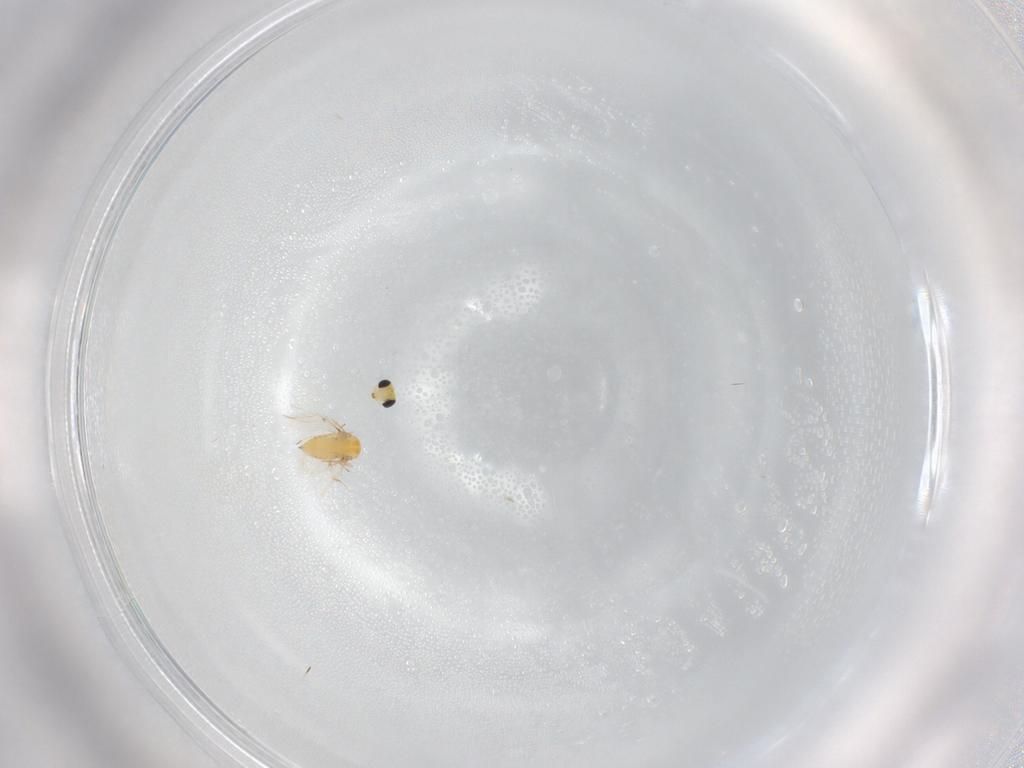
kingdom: Animalia
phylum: Arthropoda
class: Insecta
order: Hymenoptera
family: Trichogrammatidae
